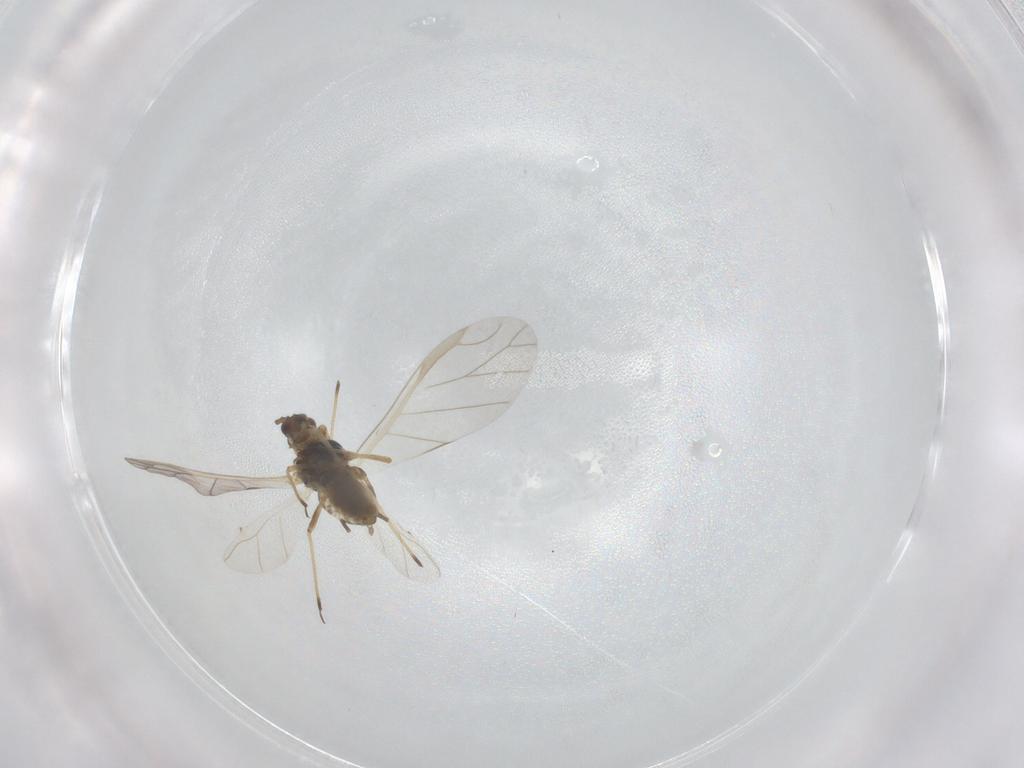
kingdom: Animalia
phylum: Arthropoda
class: Insecta
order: Hemiptera
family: Aphididae
